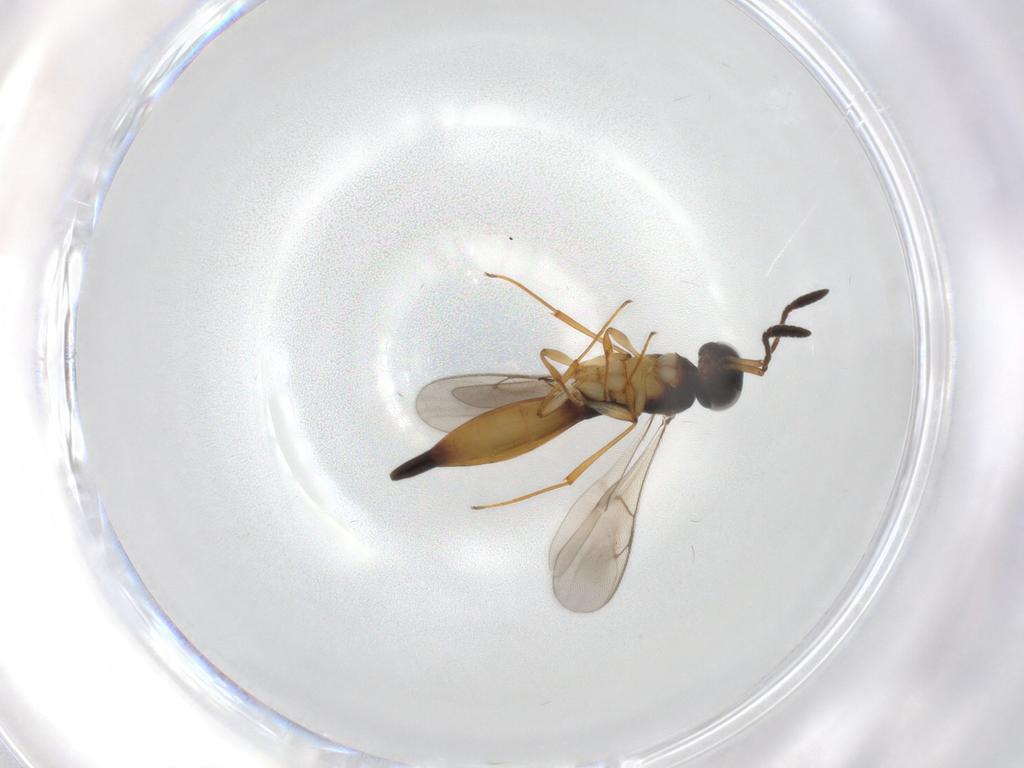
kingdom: Animalia
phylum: Arthropoda
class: Insecta
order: Hymenoptera
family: Scelionidae
